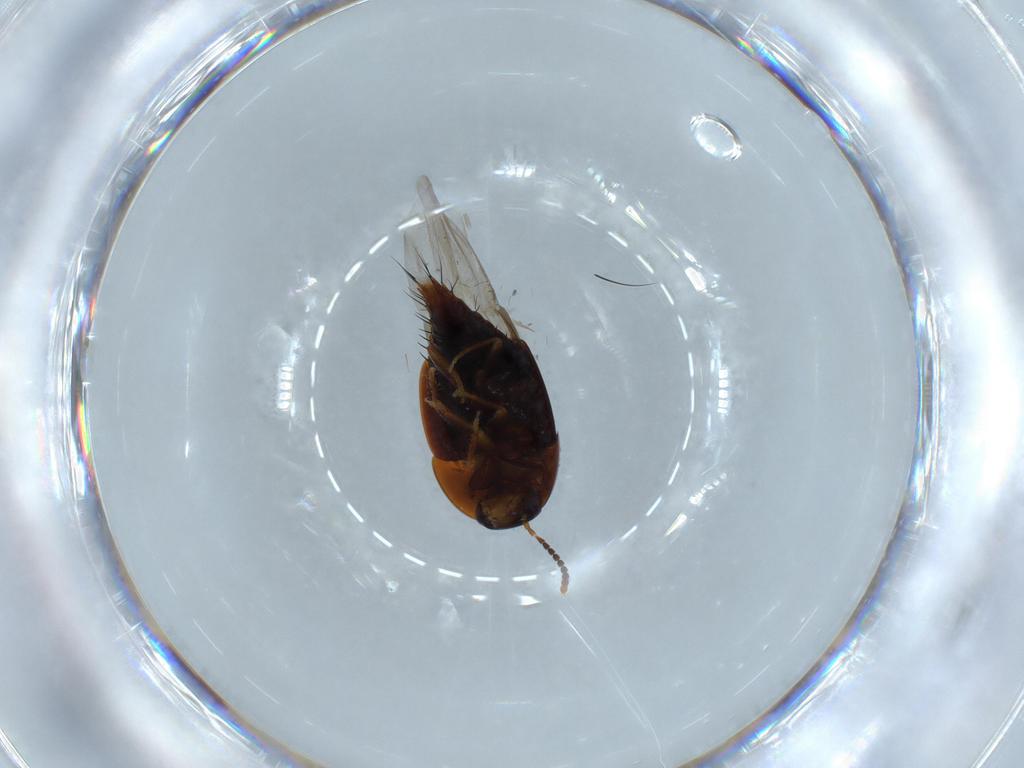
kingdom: Animalia
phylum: Arthropoda
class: Insecta
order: Coleoptera
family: Staphylinidae
